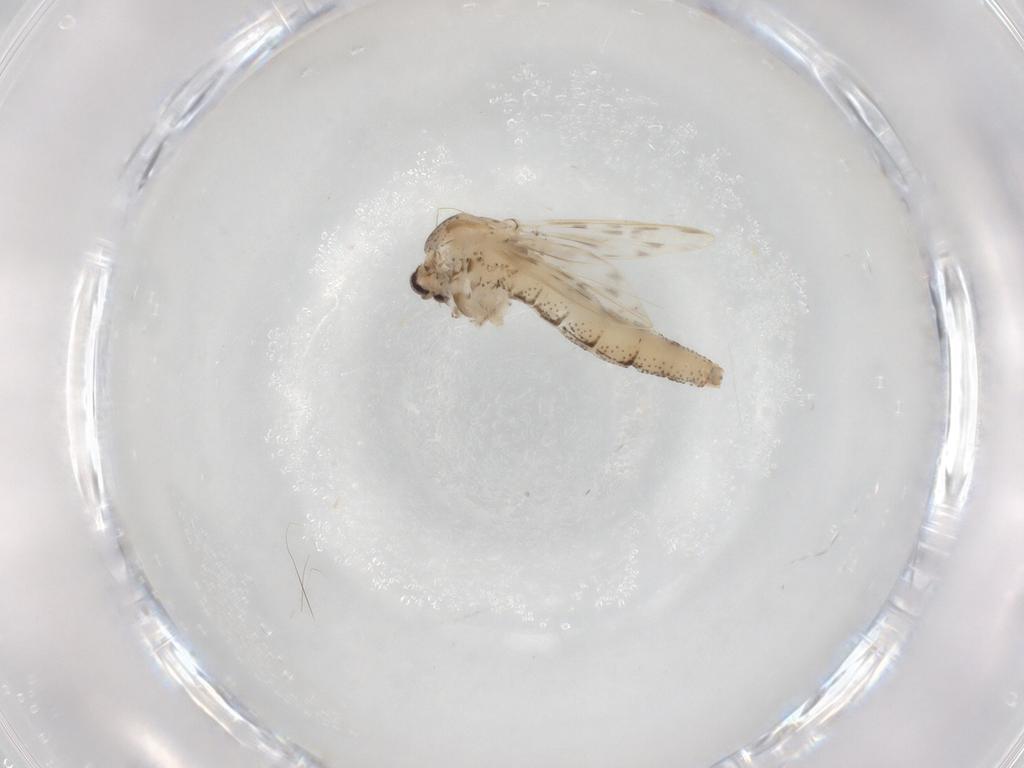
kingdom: Animalia
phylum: Arthropoda
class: Insecta
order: Diptera
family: Chaoboridae
